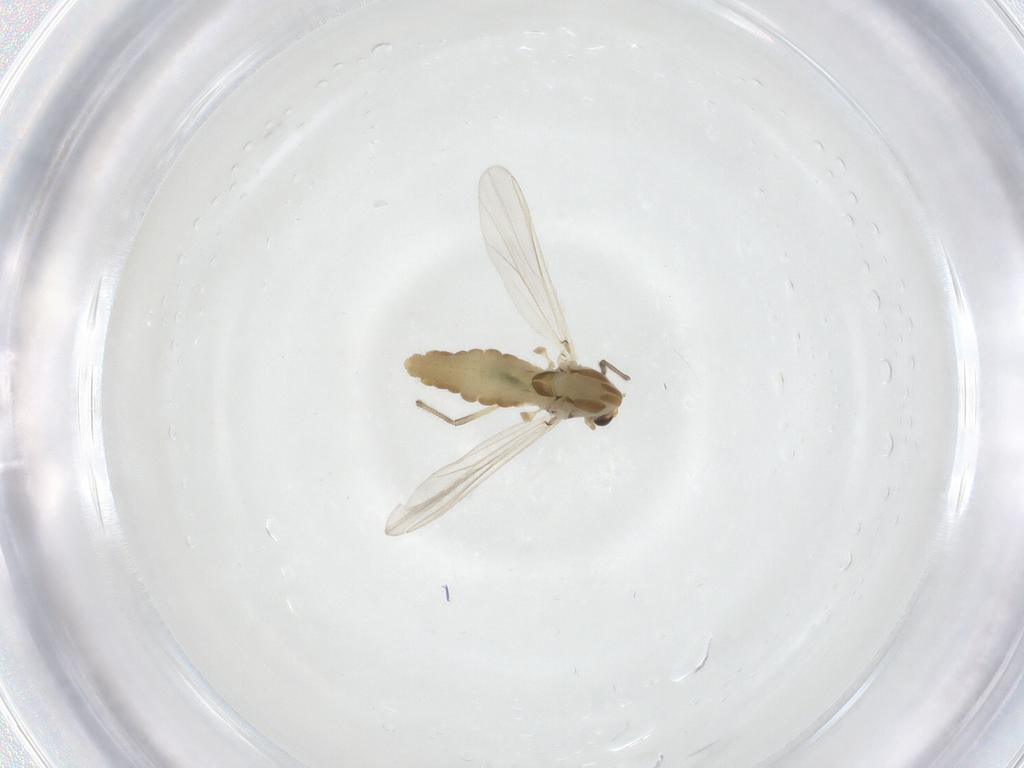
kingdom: Animalia
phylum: Arthropoda
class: Insecta
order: Diptera
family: Chironomidae
